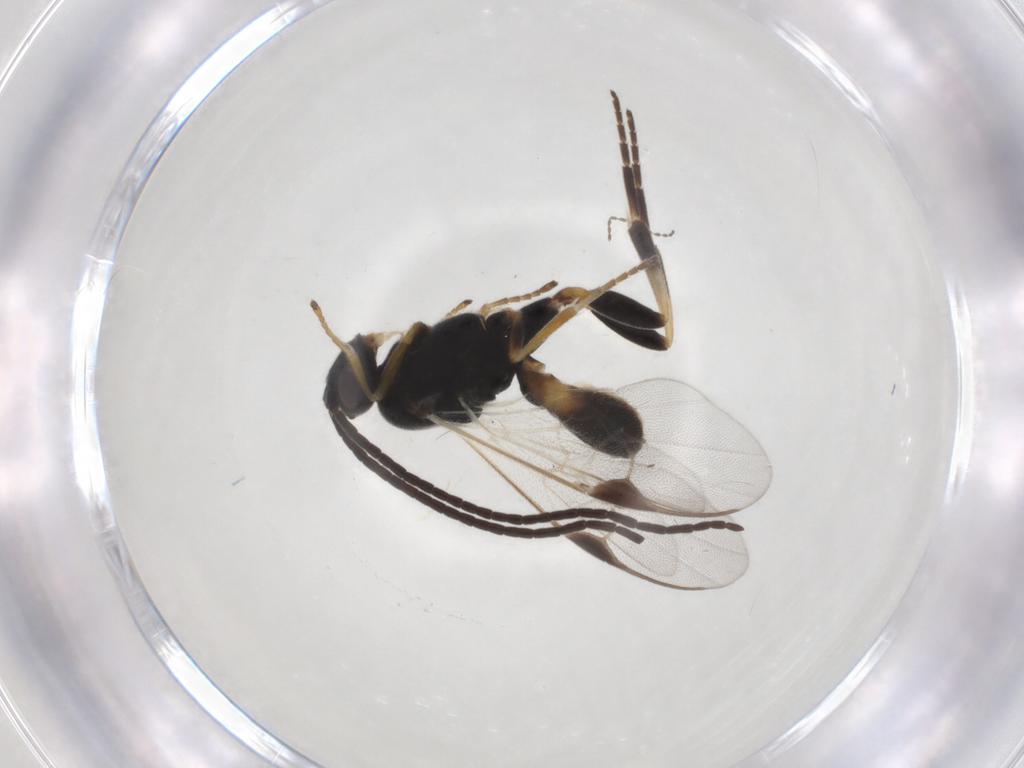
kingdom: Animalia
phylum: Arthropoda
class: Insecta
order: Hymenoptera
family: Braconidae
